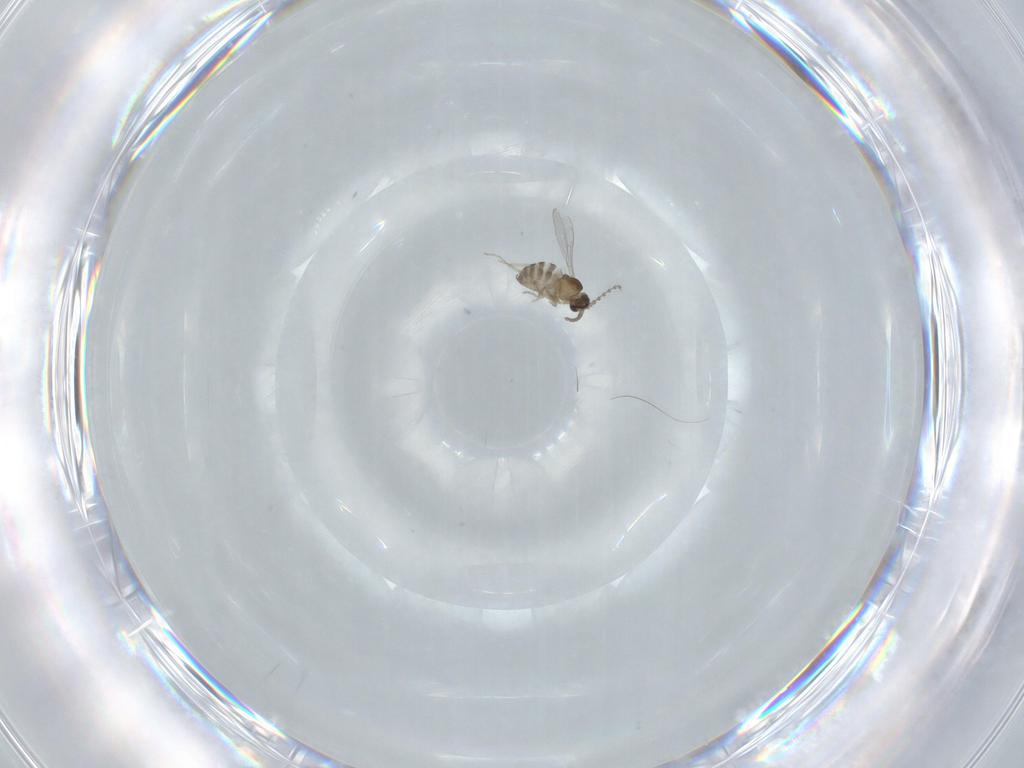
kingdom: Animalia
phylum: Arthropoda
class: Insecta
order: Diptera
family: Cecidomyiidae
